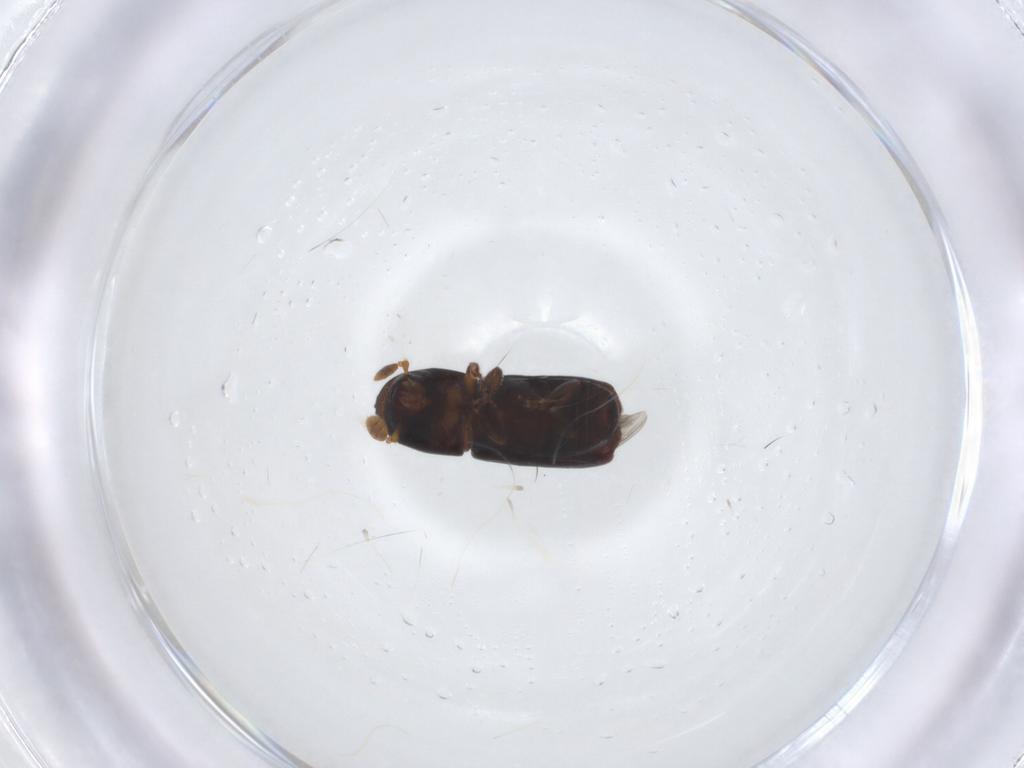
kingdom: Animalia
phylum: Arthropoda
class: Insecta
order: Coleoptera
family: Curculionidae
